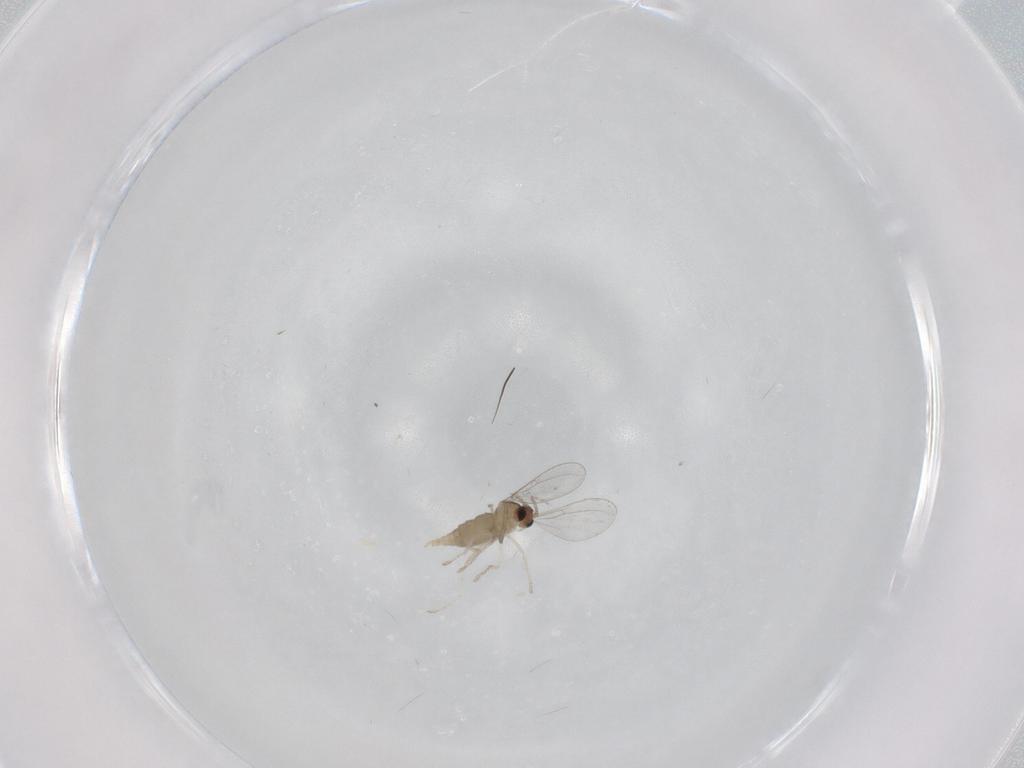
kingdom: Animalia
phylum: Arthropoda
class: Insecta
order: Diptera
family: Cecidomyiidae
